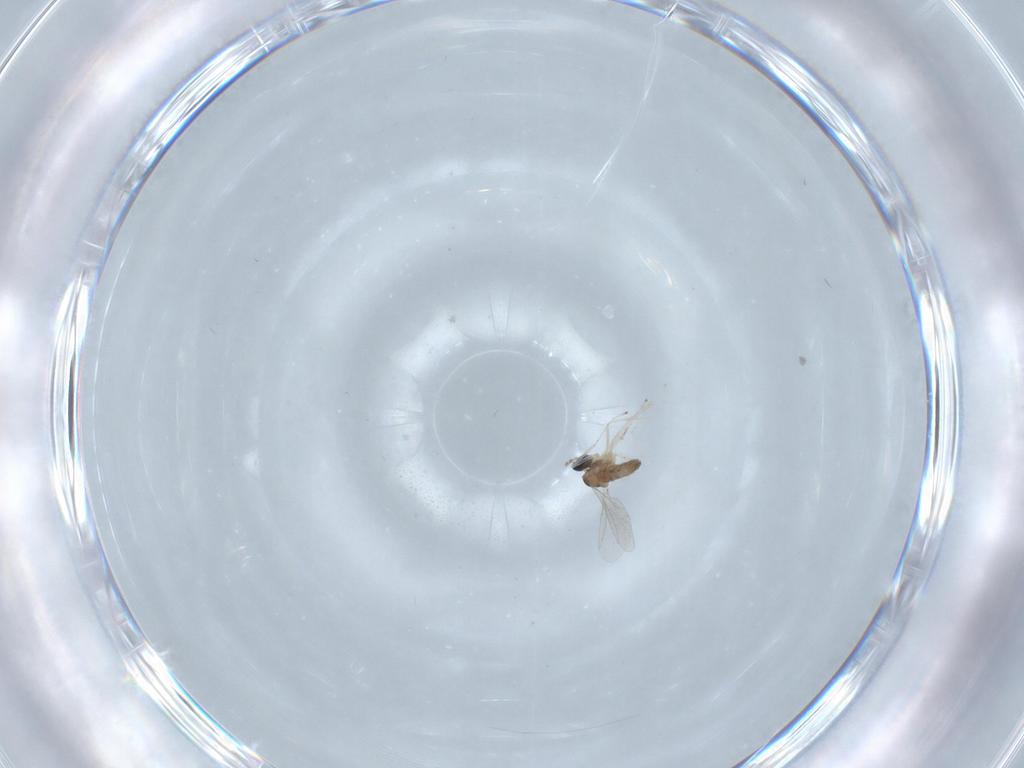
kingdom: Animalia
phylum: Arthropoda
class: Insecta
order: Diptera
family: Cecidomyiidae
